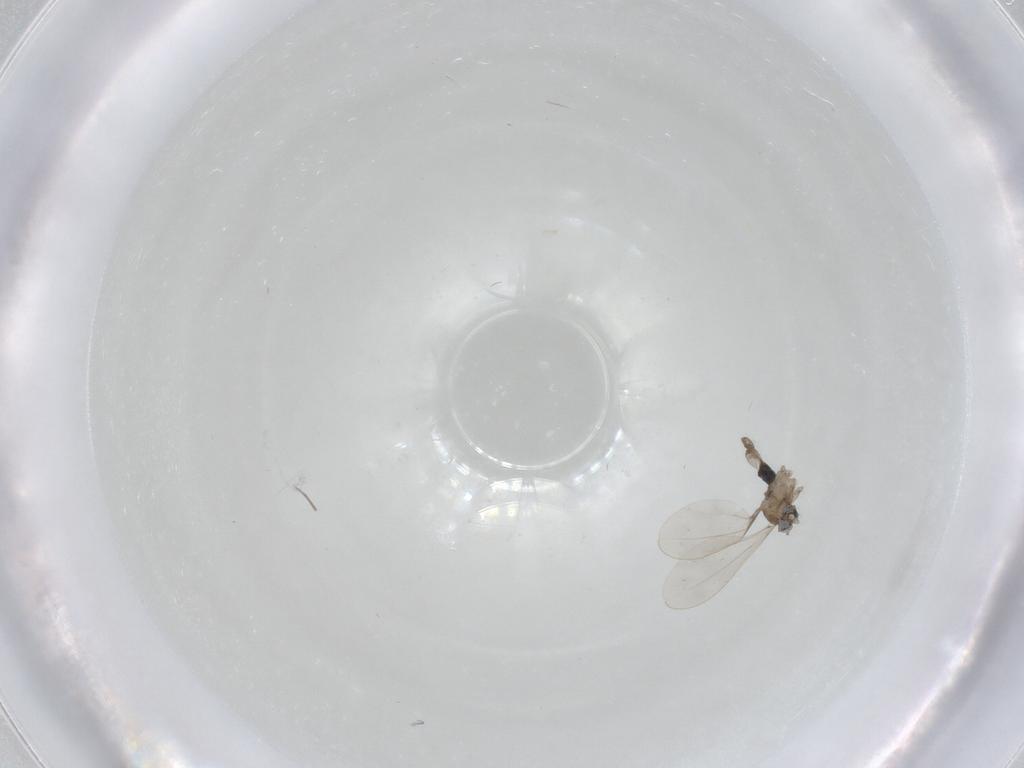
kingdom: Animalia
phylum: Arthropoda
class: Insecta
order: Diptera
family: Cecidomyiidae
